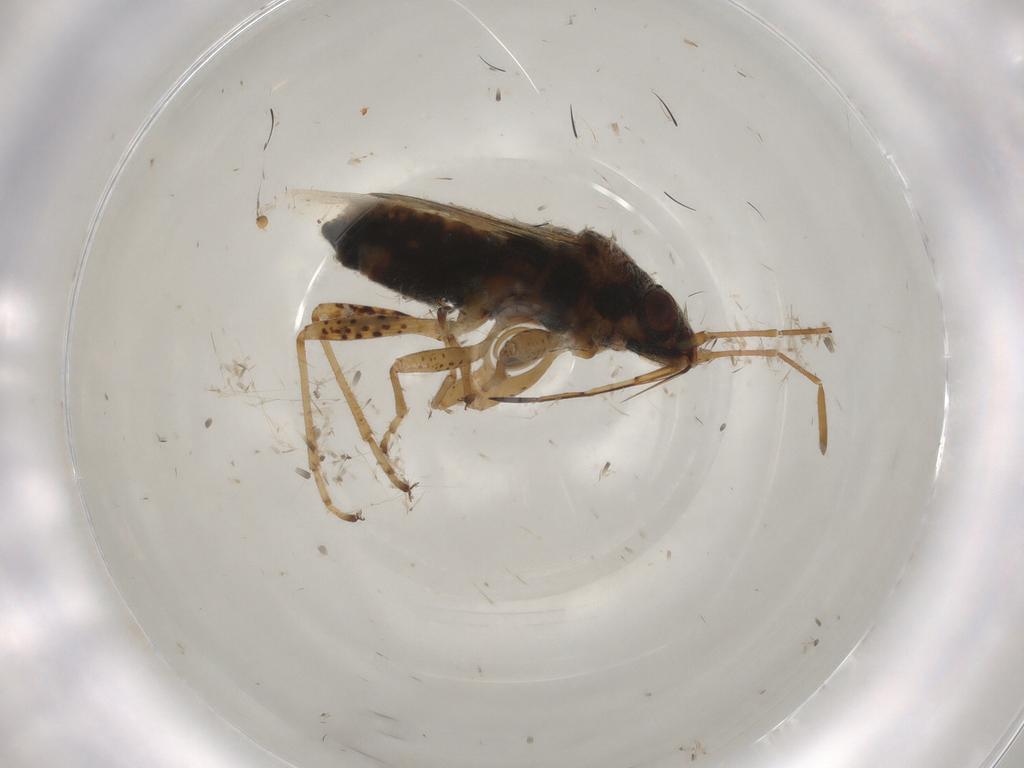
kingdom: Animalia
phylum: Arthropoda
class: Insecta
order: Hemiptera
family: Lygaeidae
